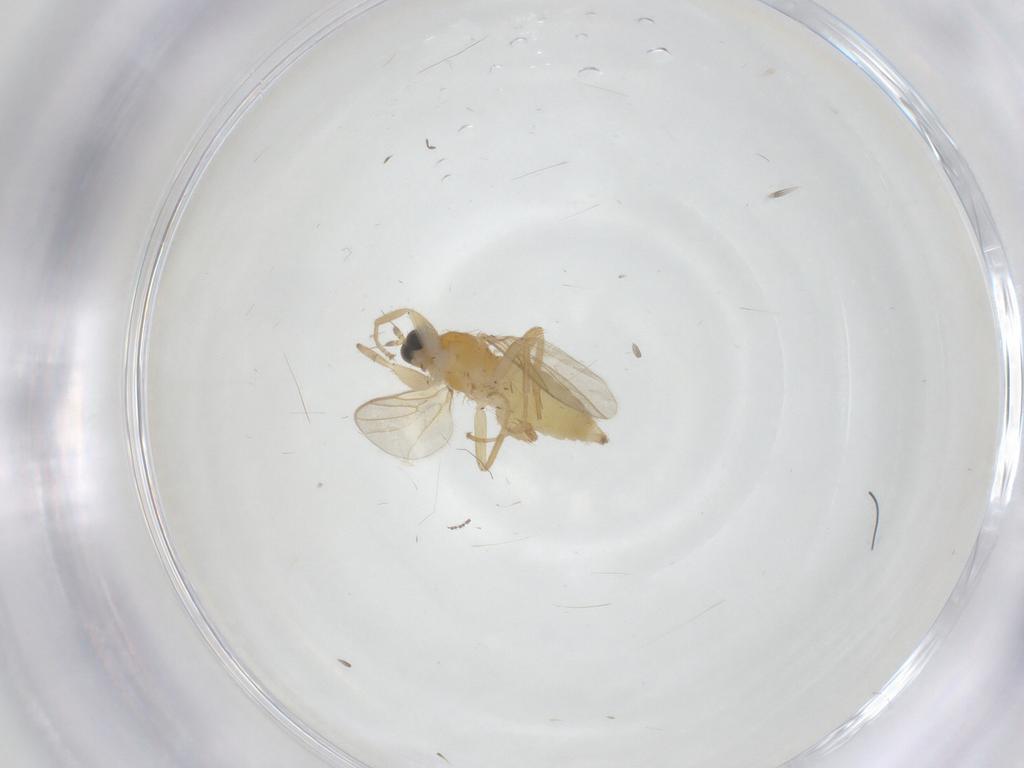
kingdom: Animalia
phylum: Arthropoda
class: Insecta
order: Diptera
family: Hybotidae
